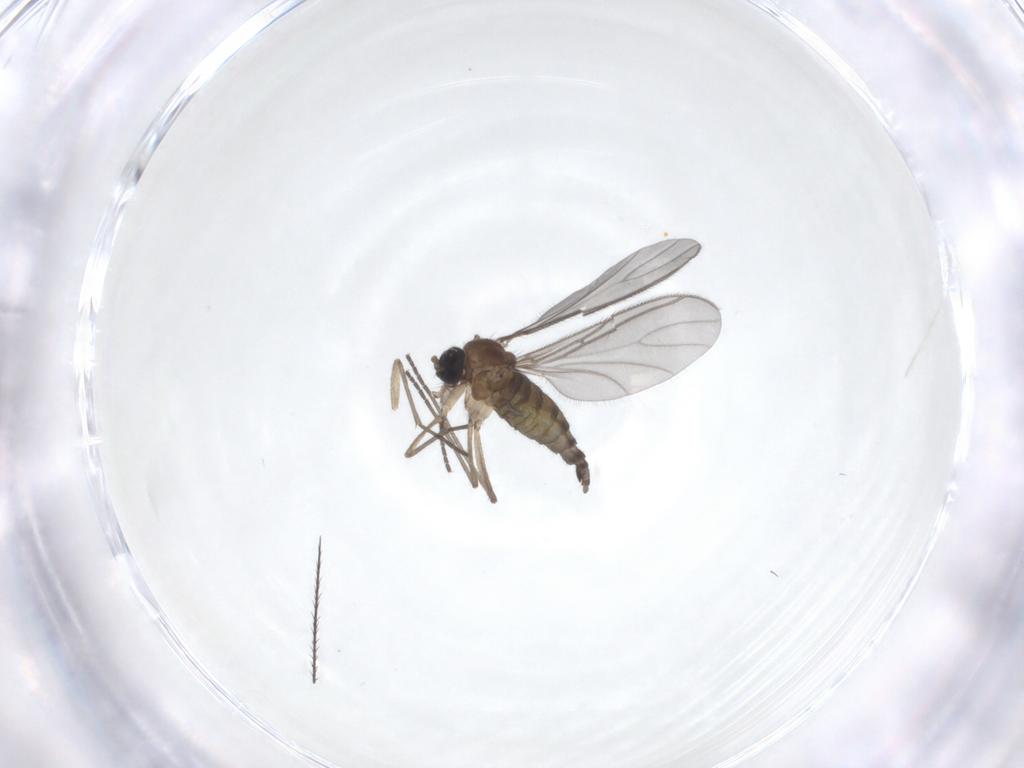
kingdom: Animalia
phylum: Arthropoda
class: Insecta
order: Diptera
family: Sciaridae
